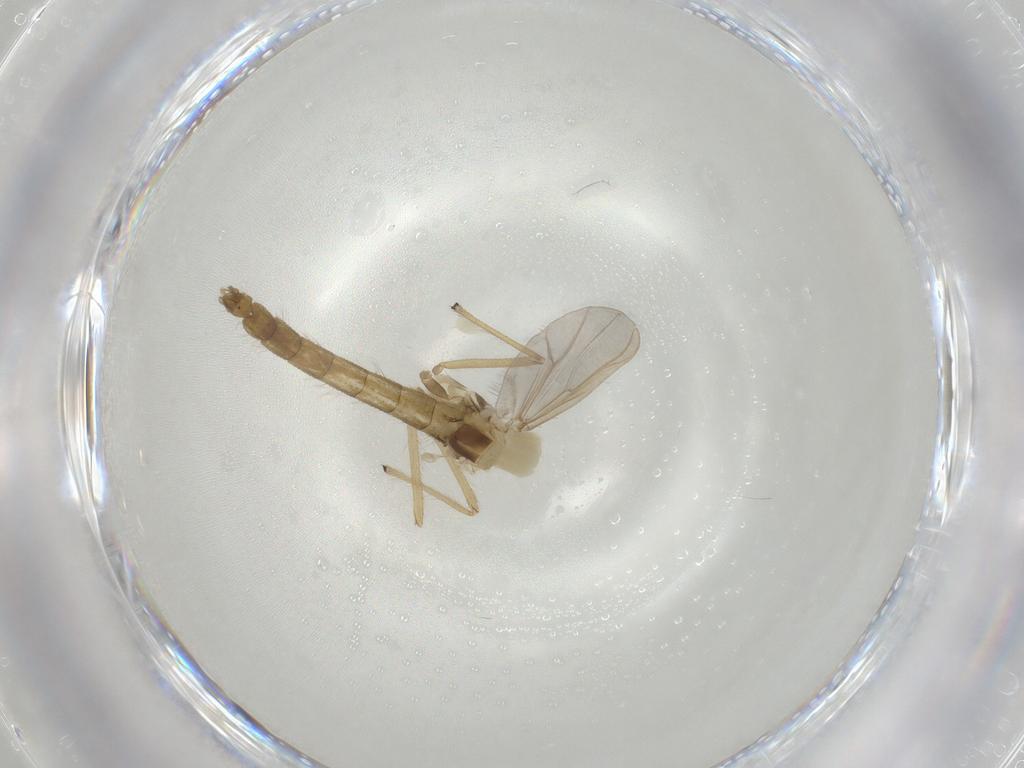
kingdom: Animalia
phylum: Arthropoda
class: Insecta
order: Diptera
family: Chironomidae
